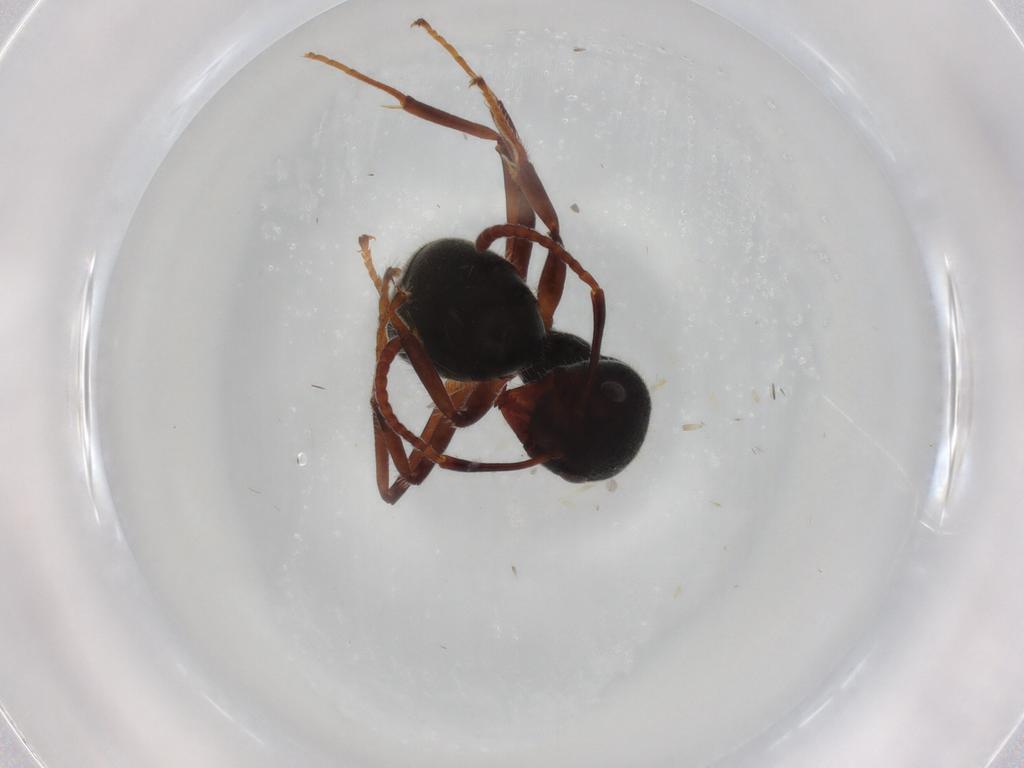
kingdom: Animalia
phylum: Arthropoda
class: Insecta
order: Hymenoptera
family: Formicidae
